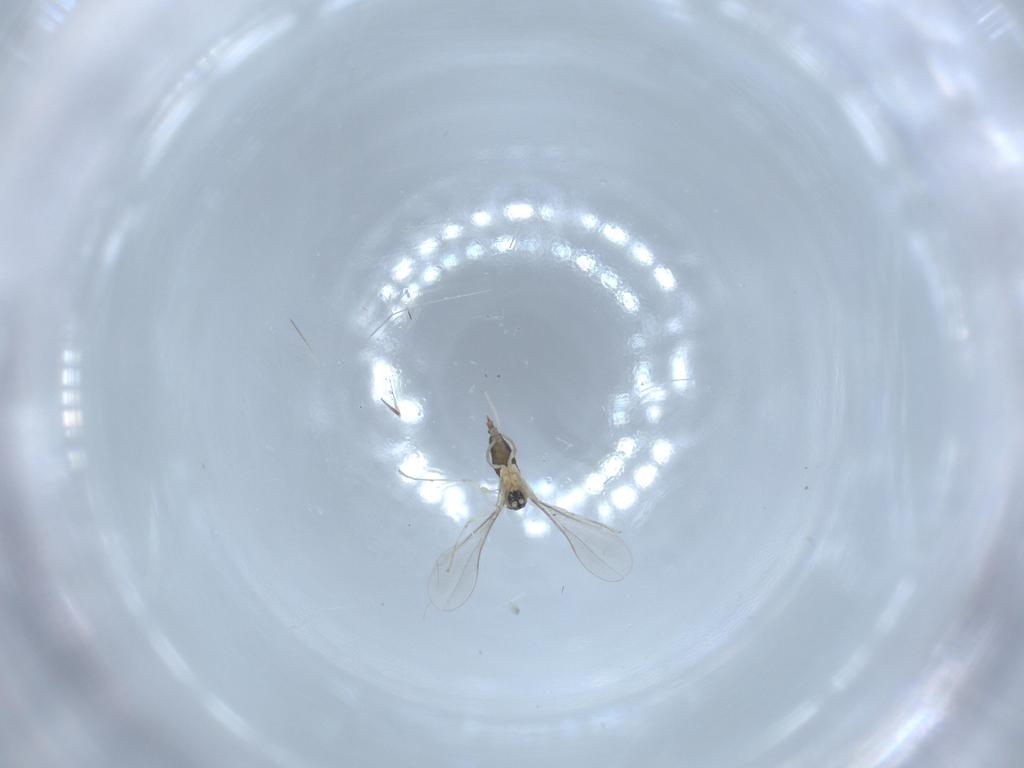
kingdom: Animalia
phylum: Arthropoda
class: Insecta
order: Diptera
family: Cecidomyiidae
